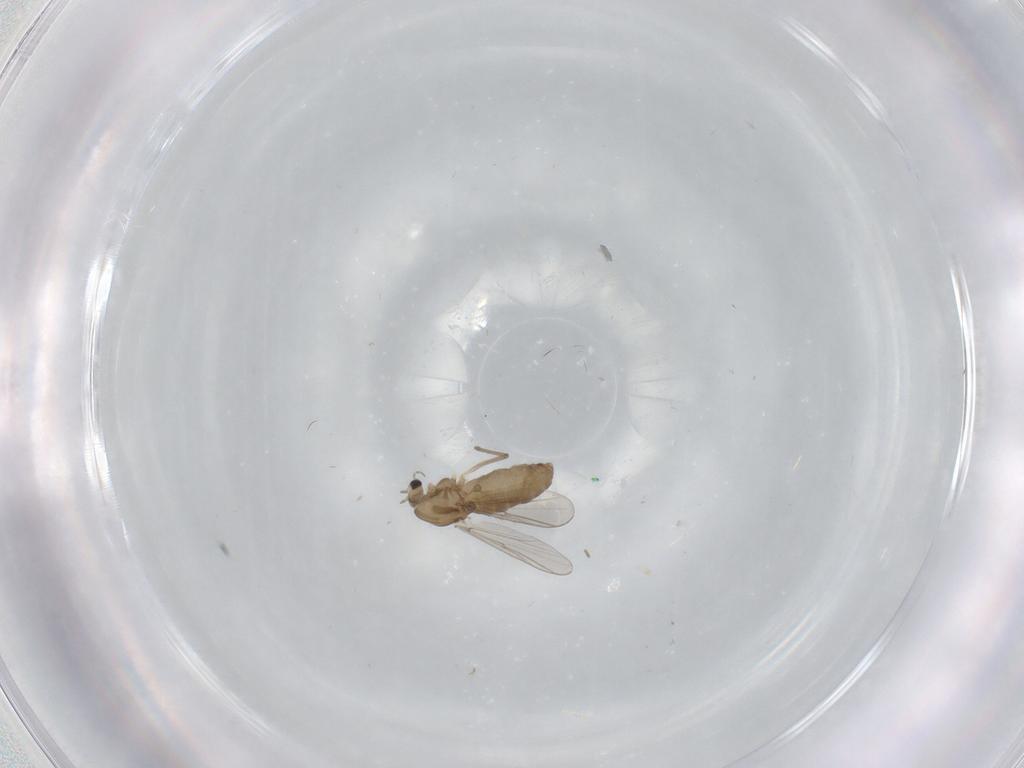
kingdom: Animalia
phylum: Arthropoda
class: Insecta
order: Diptera
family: Chironomidae
